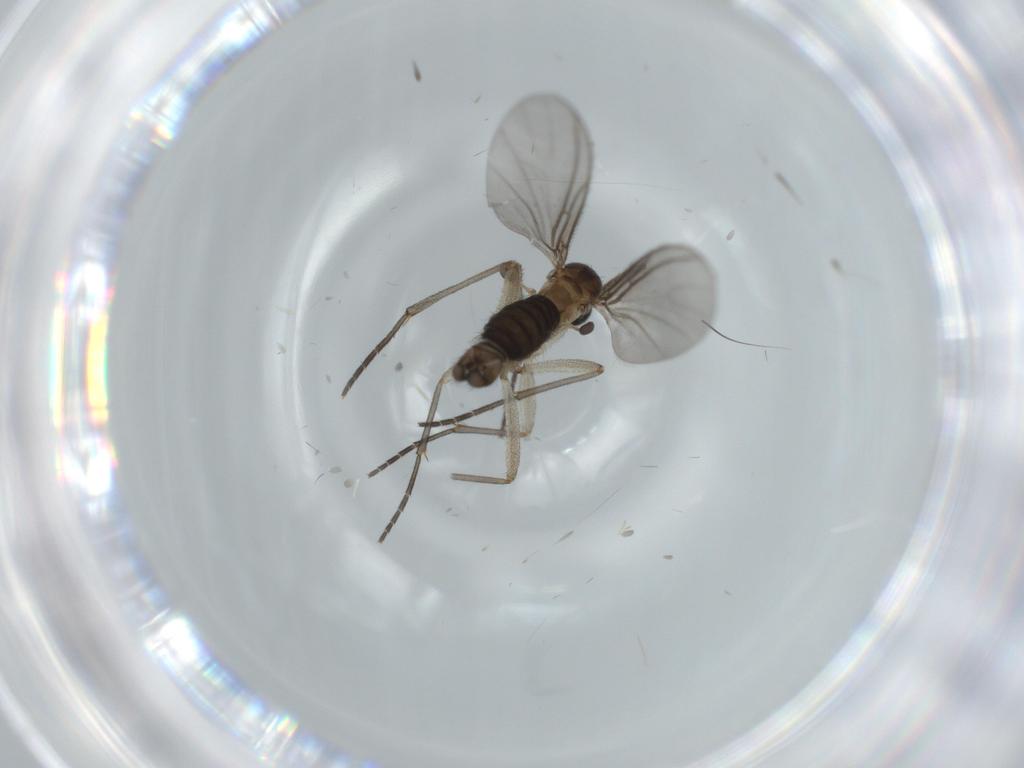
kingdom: Animalia
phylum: Arthropoda
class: Insecta
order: Diptera
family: Sciaridae
